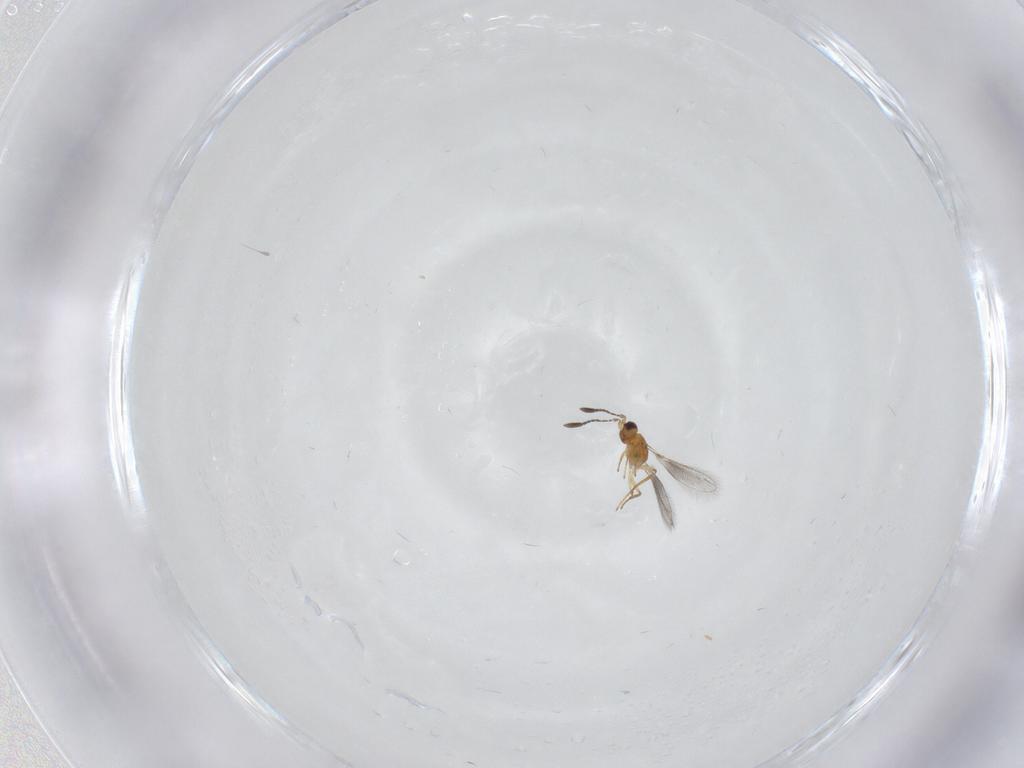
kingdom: Animalia
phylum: Arthropoda
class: Insecta
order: Hymenoptera
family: Mymaridae
